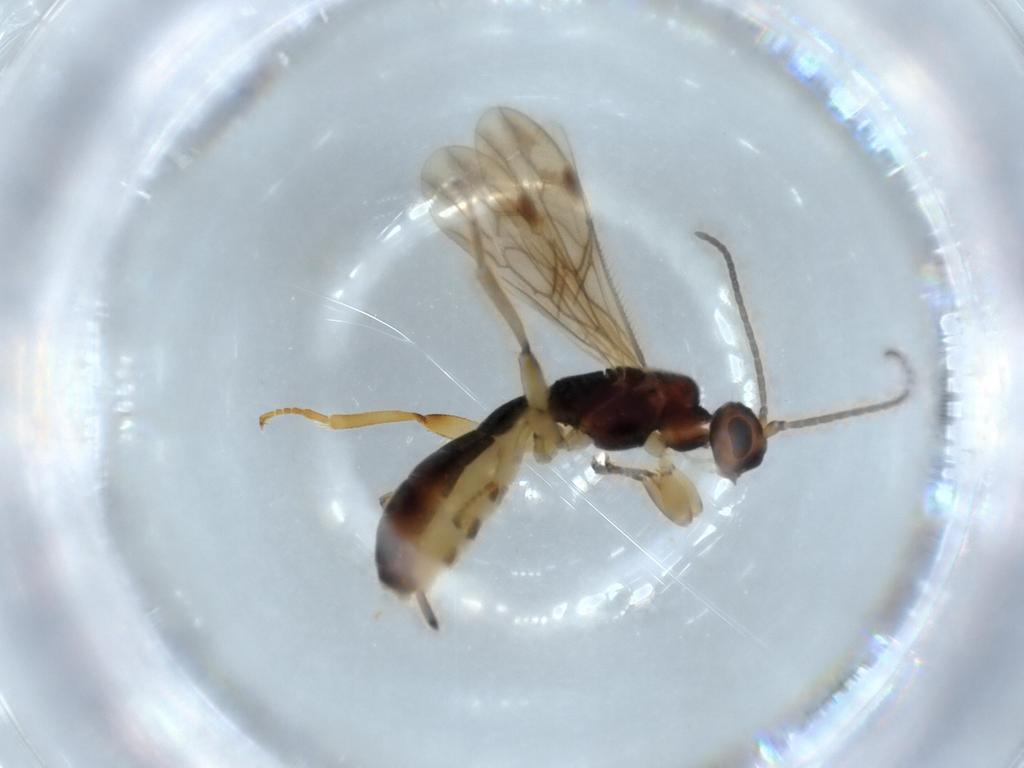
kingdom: Animalia
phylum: Arthropoda
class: Insecta
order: Hymenoptera
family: Braconidae
